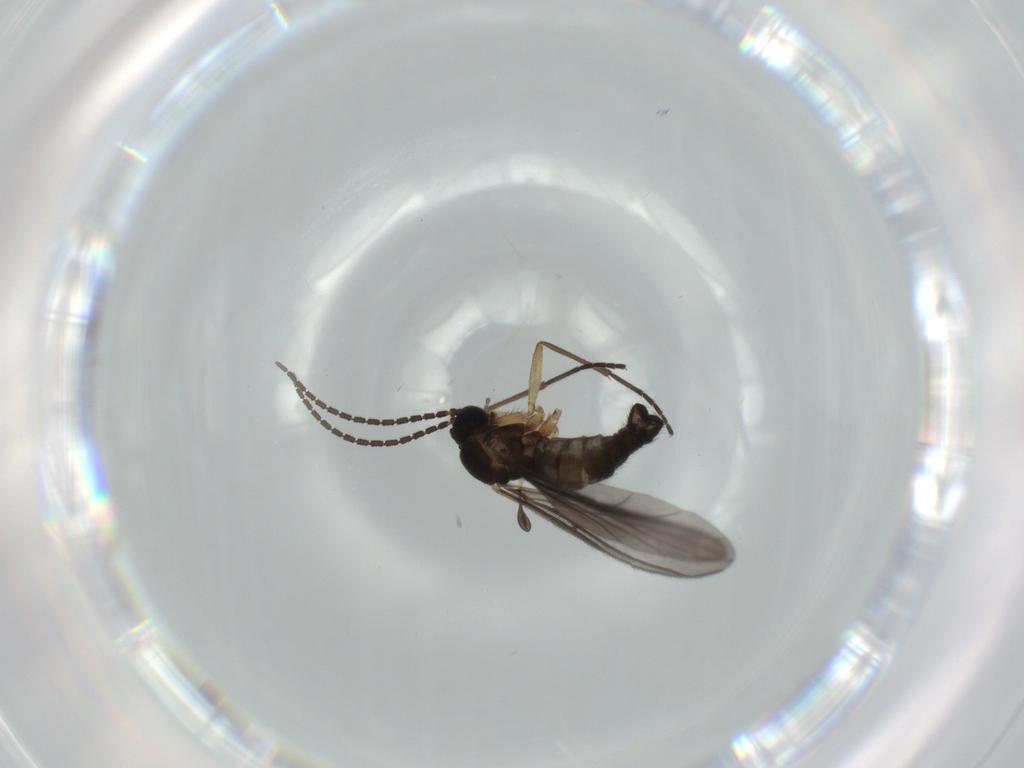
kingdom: Animalia
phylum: Arthropoda
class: Insecta
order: Diptera
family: Sciaridae
